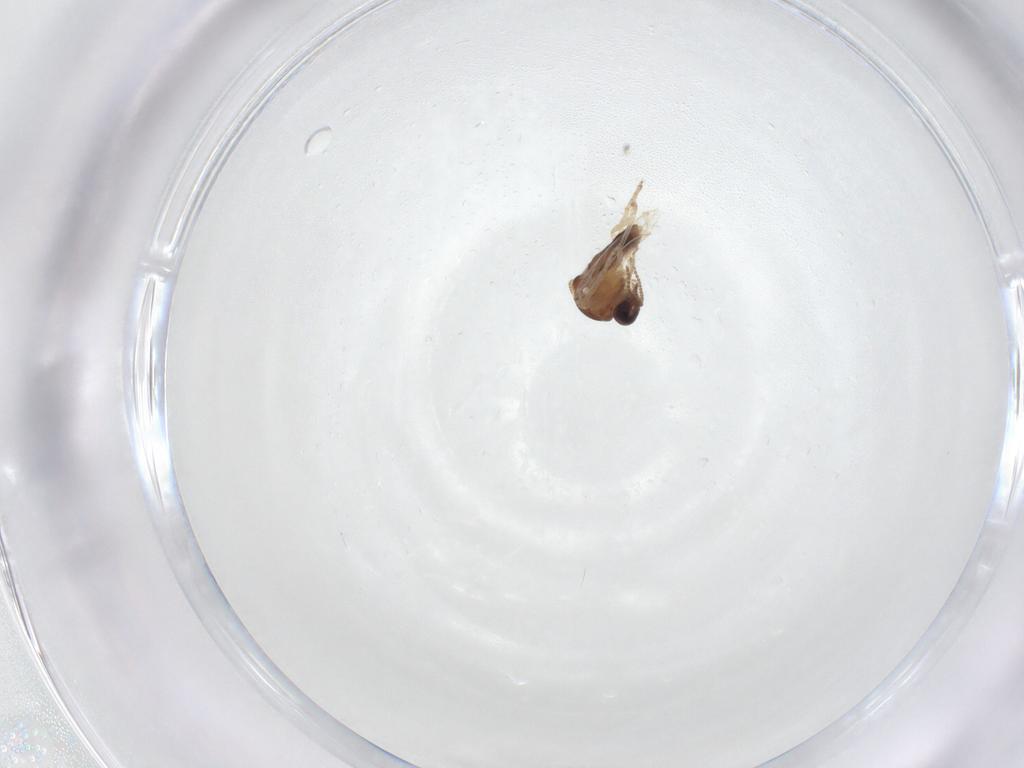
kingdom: Animalia
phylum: Arthropoda
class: Insecta
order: Diptera
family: Ceratopogonidae
